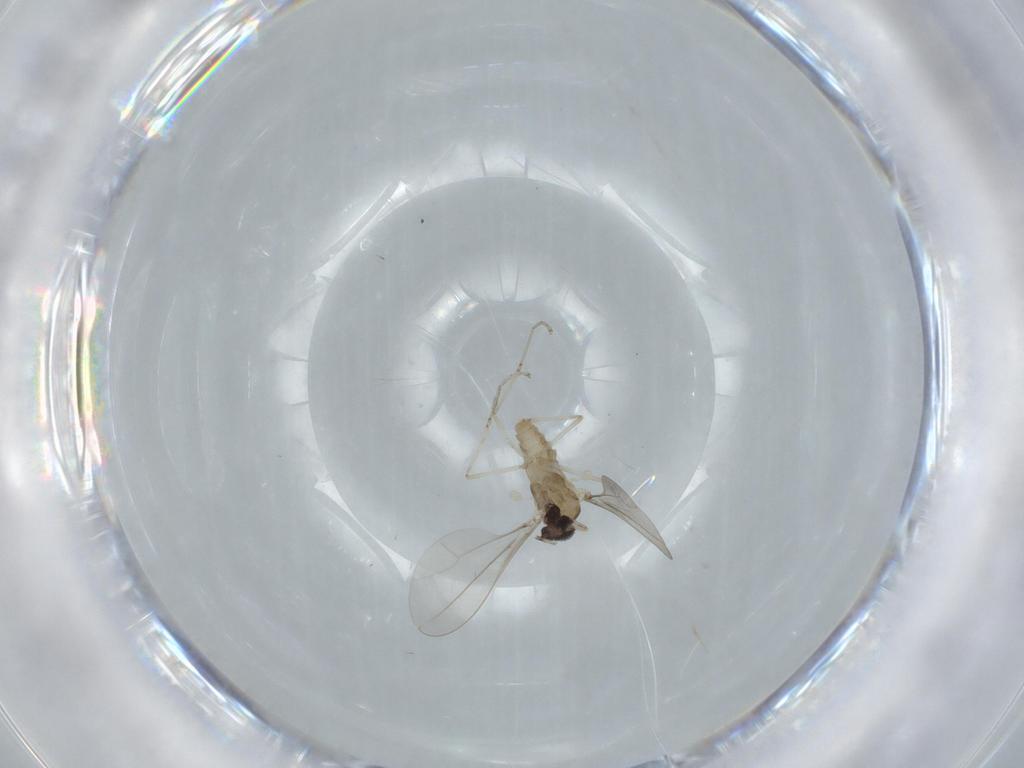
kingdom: Animalia
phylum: Arthropoda
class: Insecta
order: Diptera
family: Cecidomyiidae
